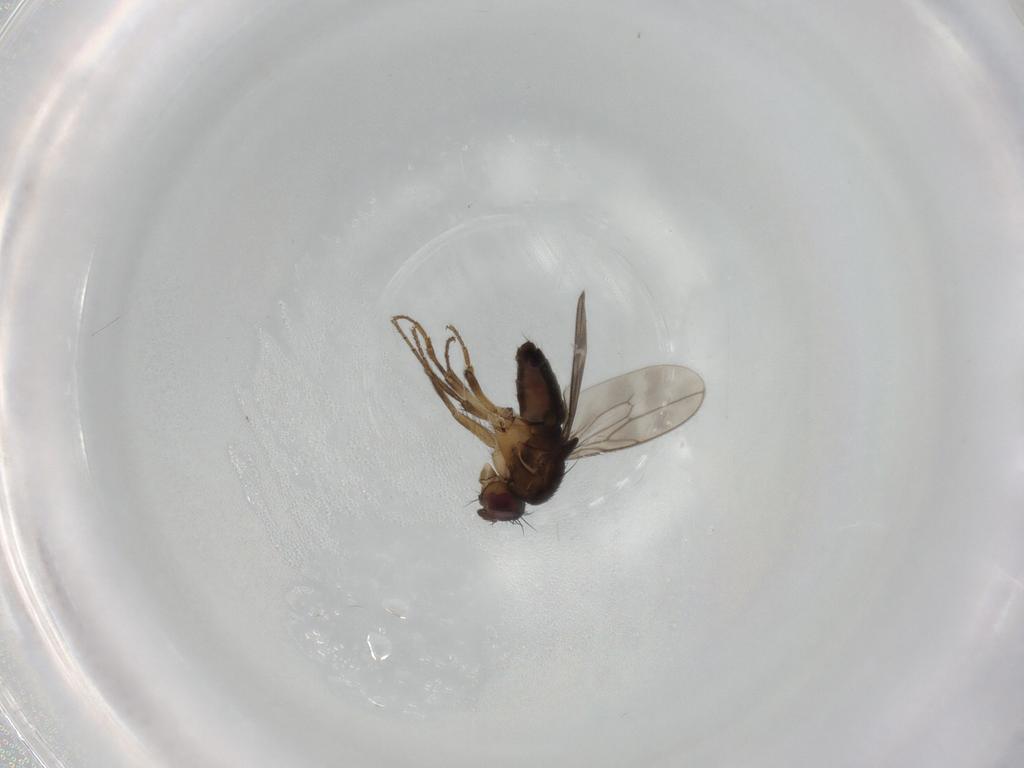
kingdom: Animalia
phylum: Arthropoda
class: Insecta
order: Diptera
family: Sphaeroceridae
